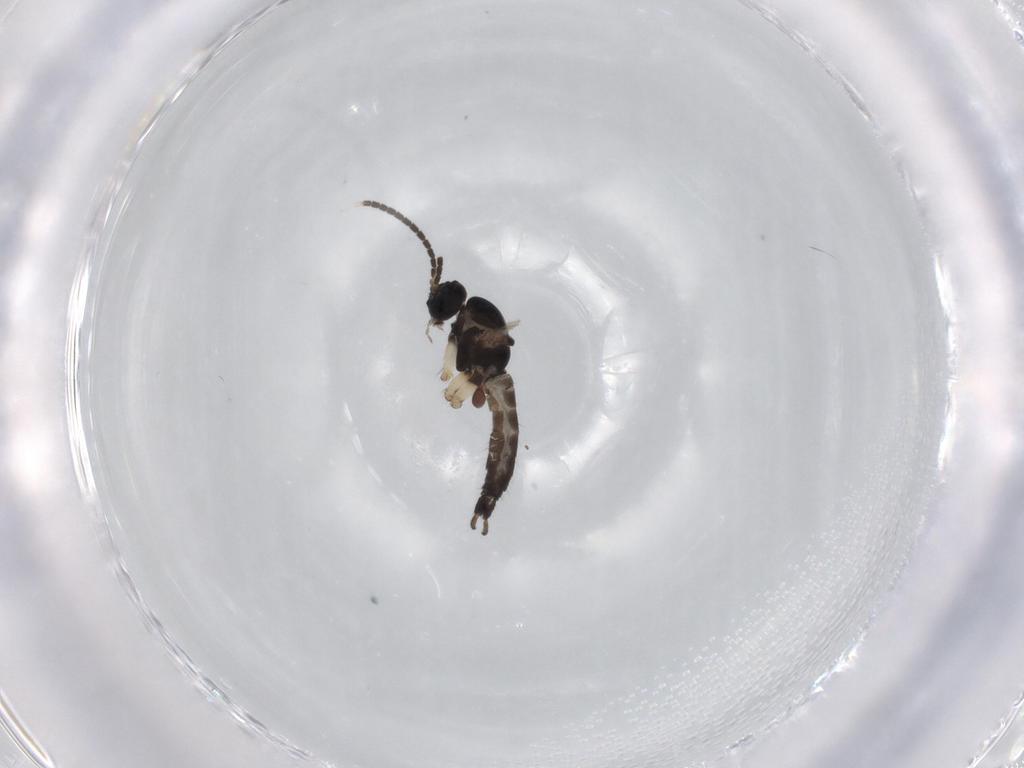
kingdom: Animalia
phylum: Arthropoda
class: Insecta
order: Diptera
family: Sciaridae
